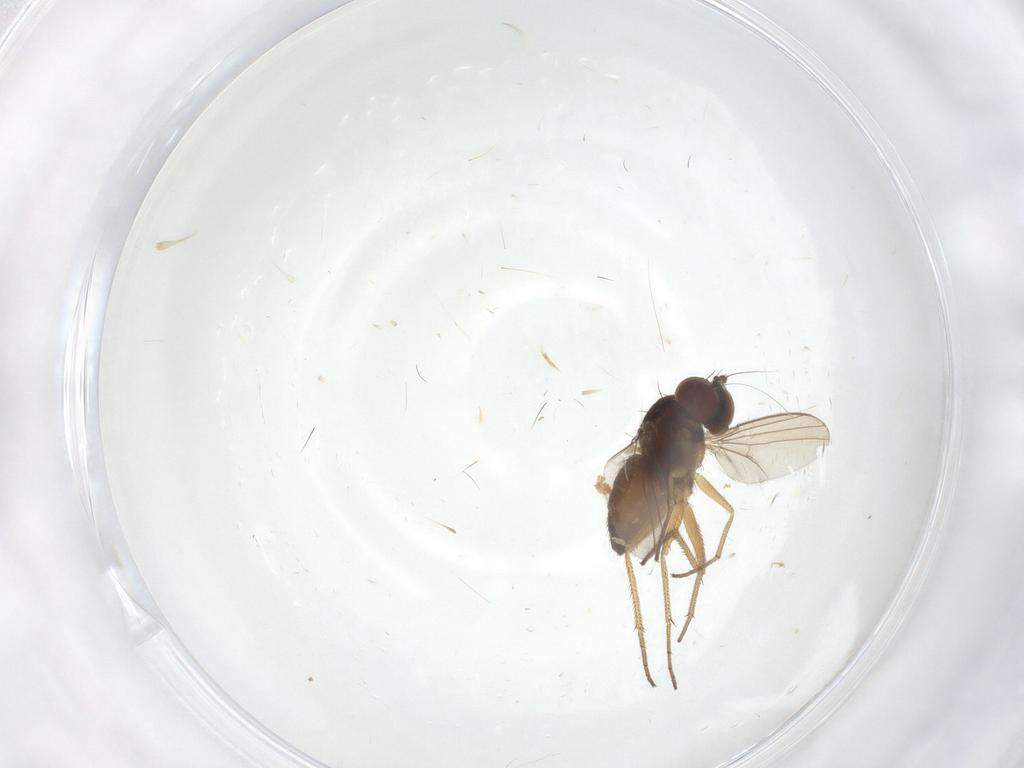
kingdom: Animalia
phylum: Arthropoda
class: Insecta
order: Diptera
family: Dolichopodidae
